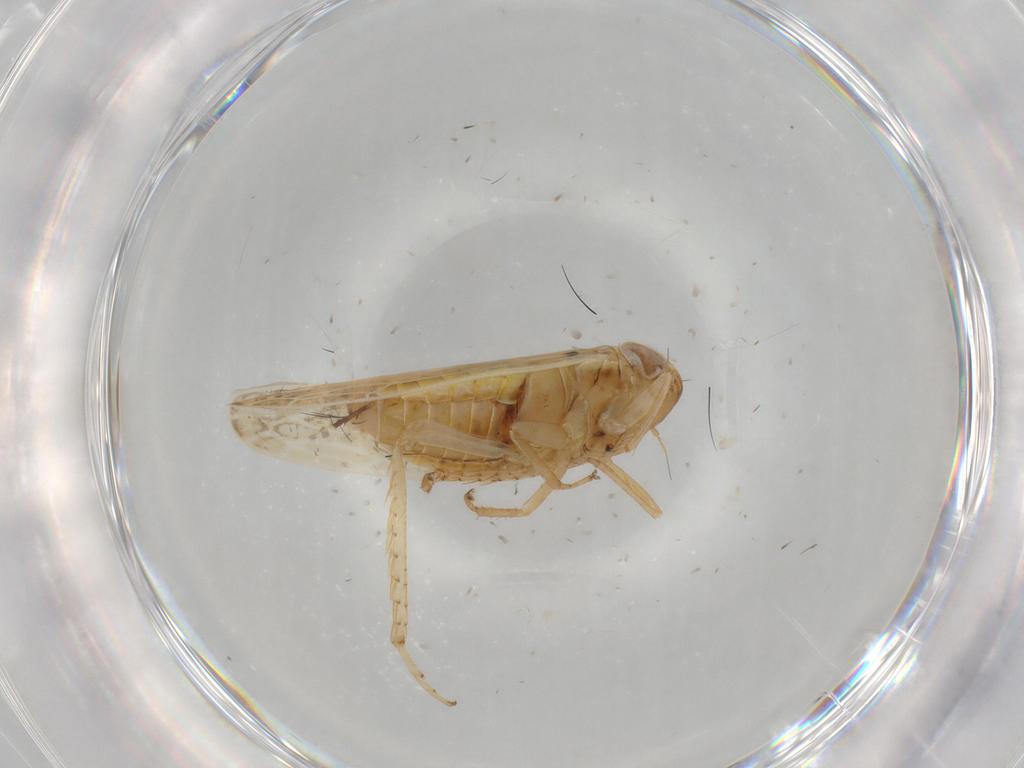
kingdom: Animalia
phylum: Arthropoda
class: Insecta
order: Hemiptera
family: Cicadellidae
